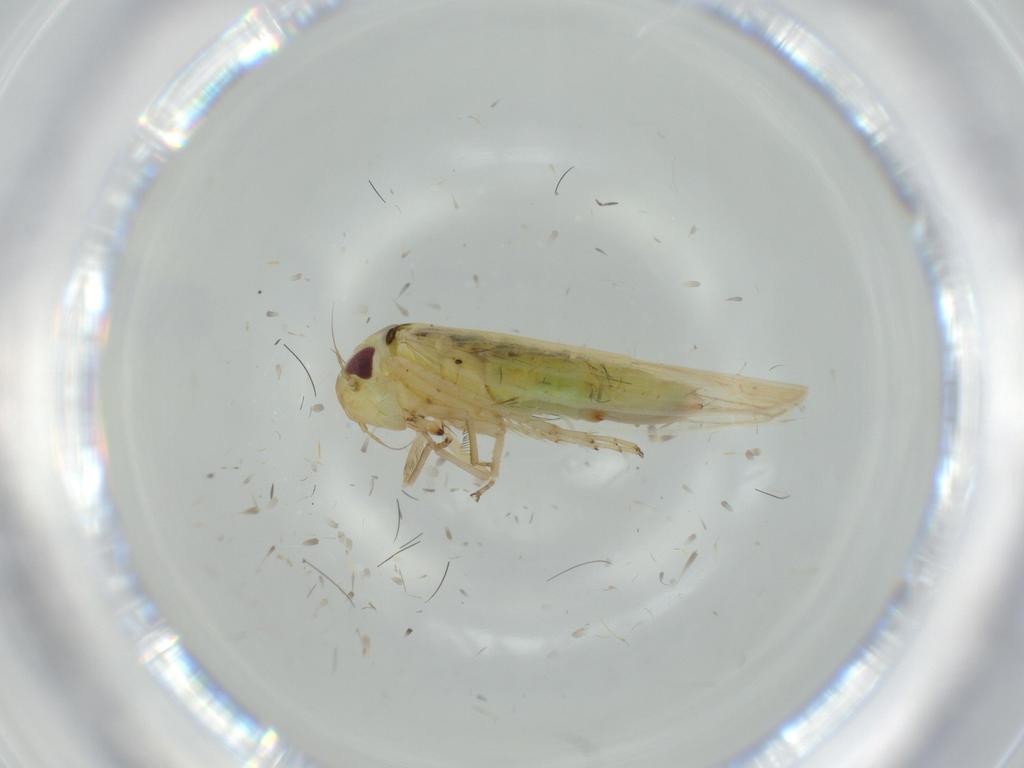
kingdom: Animalia
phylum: Arthropoda
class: Insecta
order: Hemiptera
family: Cicadellidae
